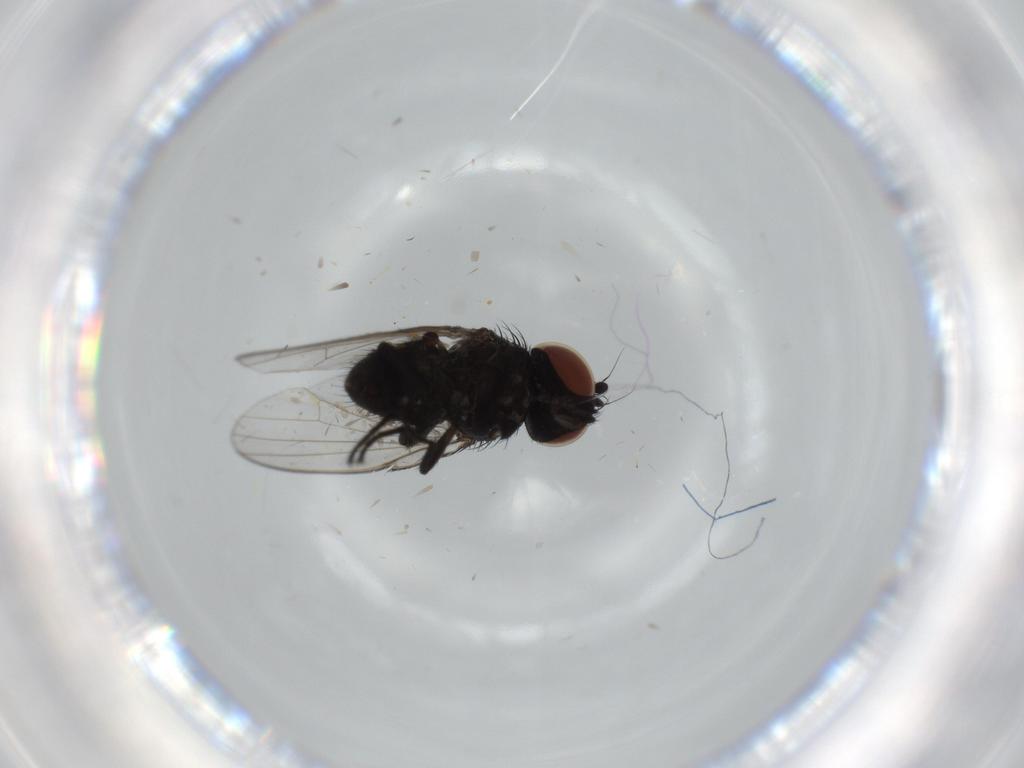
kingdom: Animalia
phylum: Arthropoda
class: Insecta
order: Diptera
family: Milichiidae
